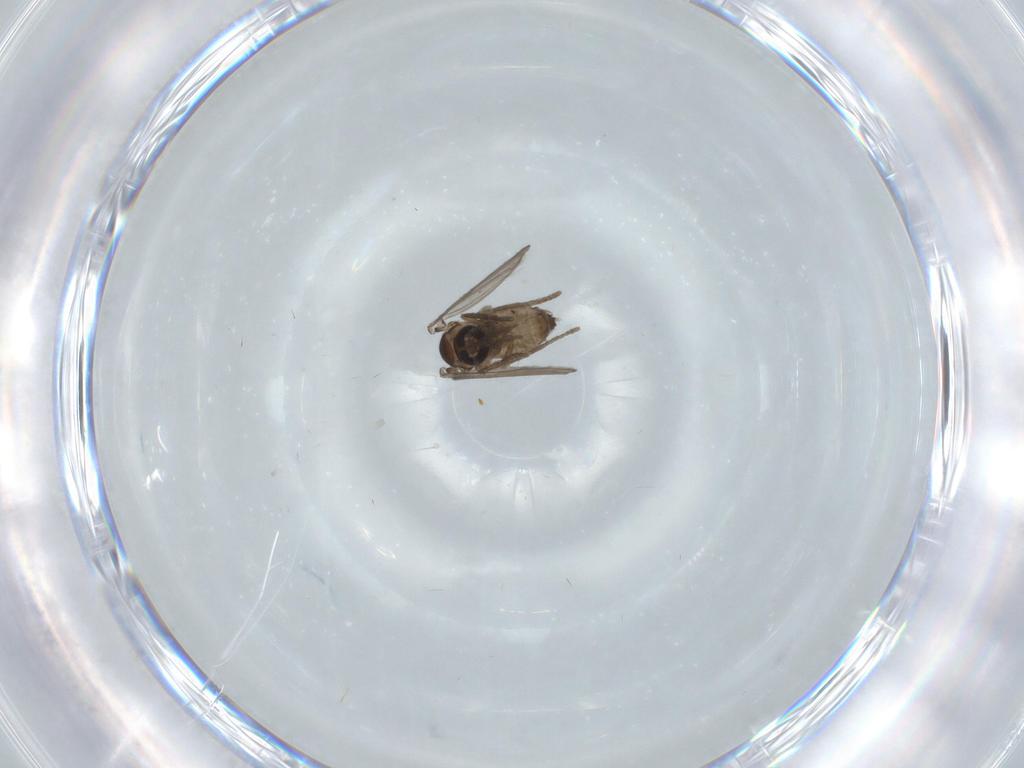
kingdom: Animalia
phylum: Arthropoda
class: Insecta
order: Diptera
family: Psychodidae
